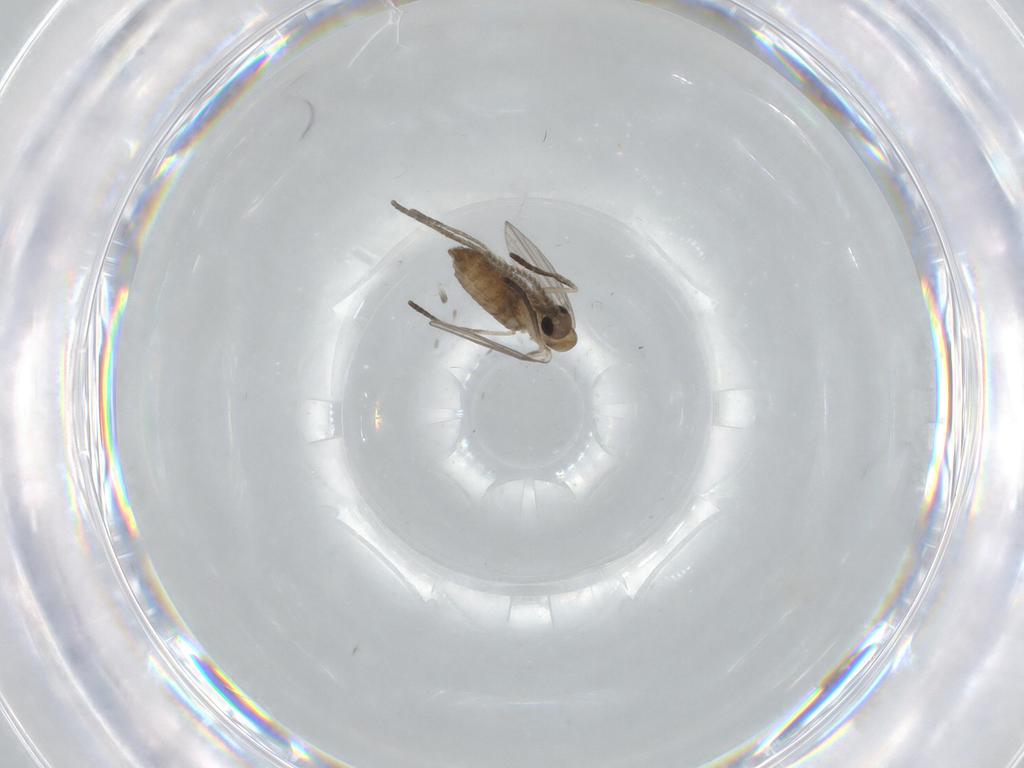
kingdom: Animalia
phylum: Arthropoda
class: Insecta
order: Diptera
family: Psychodidae
